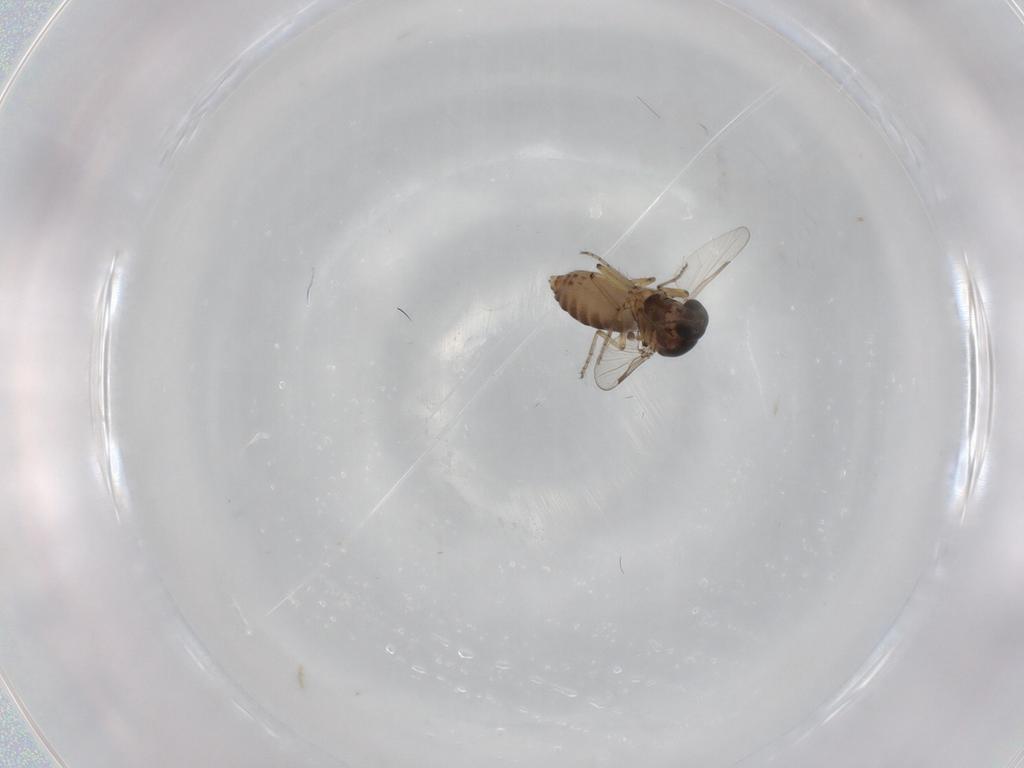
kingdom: Animalia
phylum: Arthropoda
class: Insecta
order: Diptera
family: Ceratopogonidae
